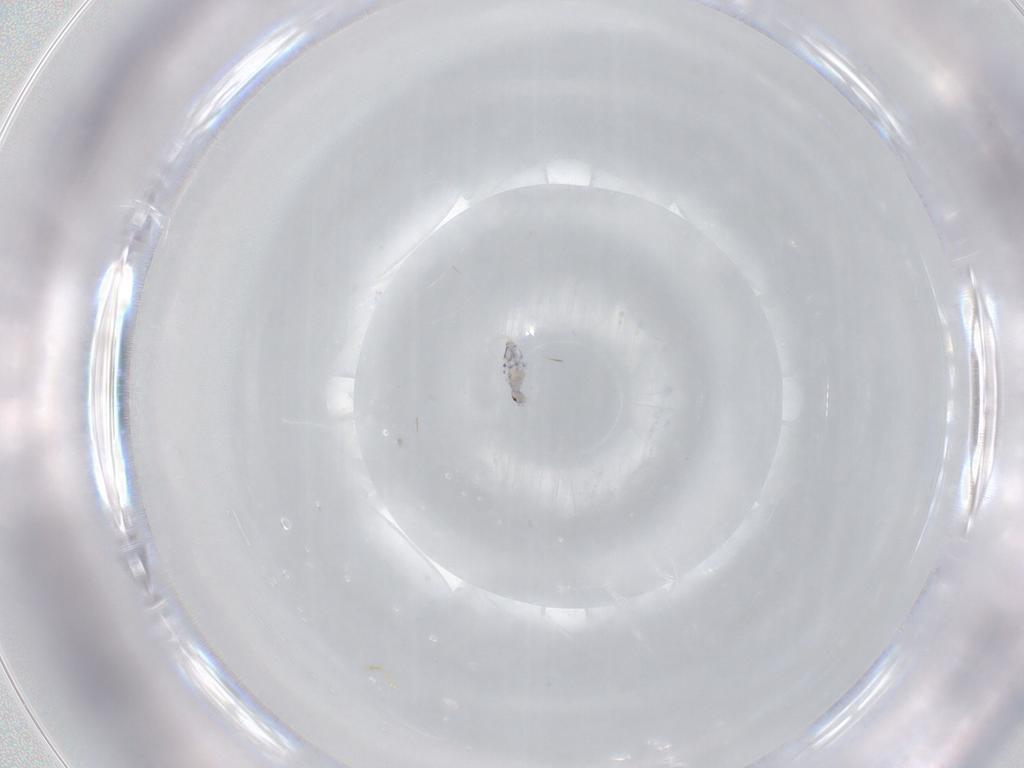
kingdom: Animalia
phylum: Arthropoda
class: Collembola
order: Entomobryomorpha
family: Entomobryidae
